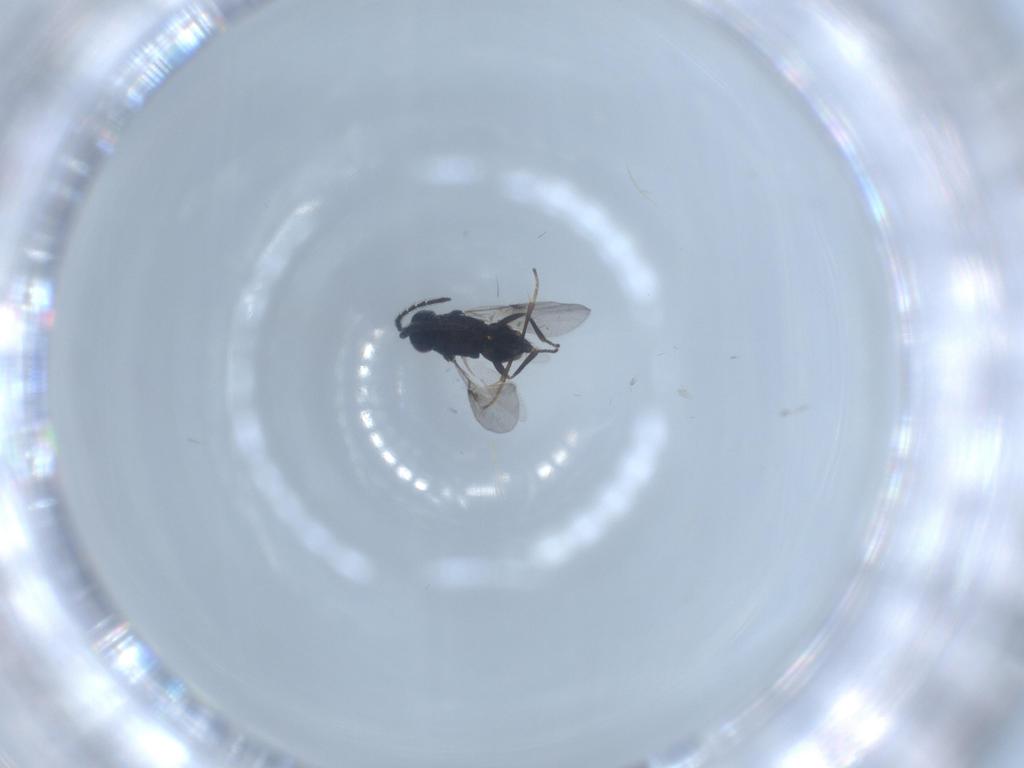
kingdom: Animalia
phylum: Arthropoda
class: Insecta
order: Hymenoptera
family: Encyrtidae
